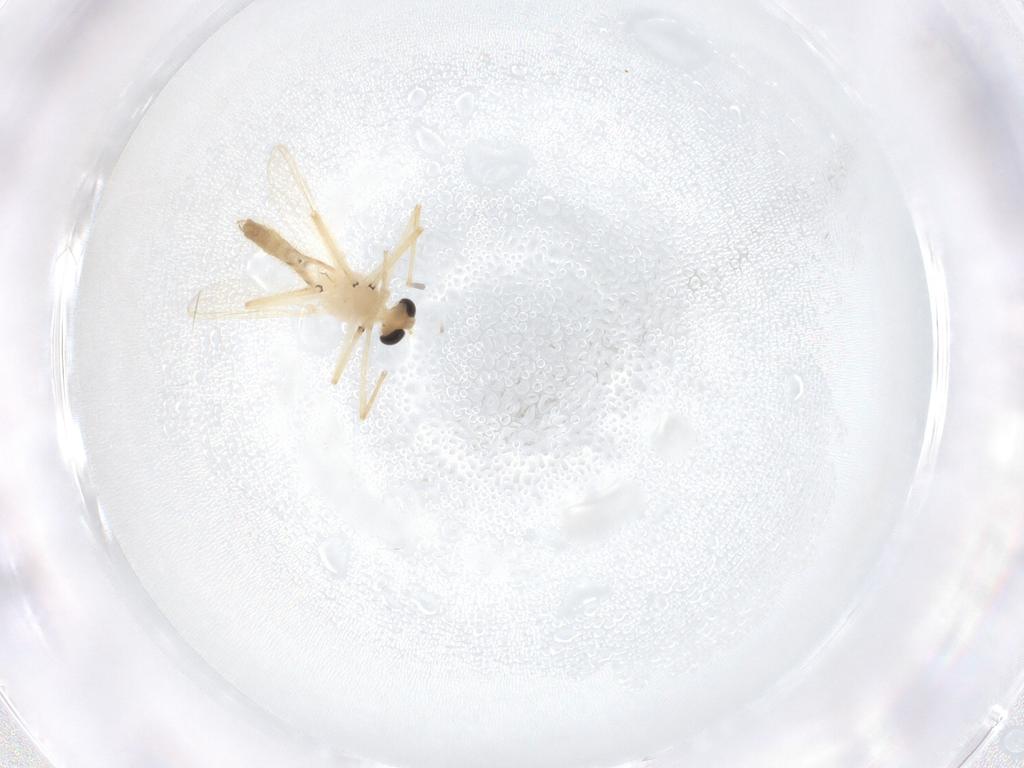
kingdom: Animalia
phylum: Arthropoda
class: Insecta
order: Diptera
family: Chironomidae
